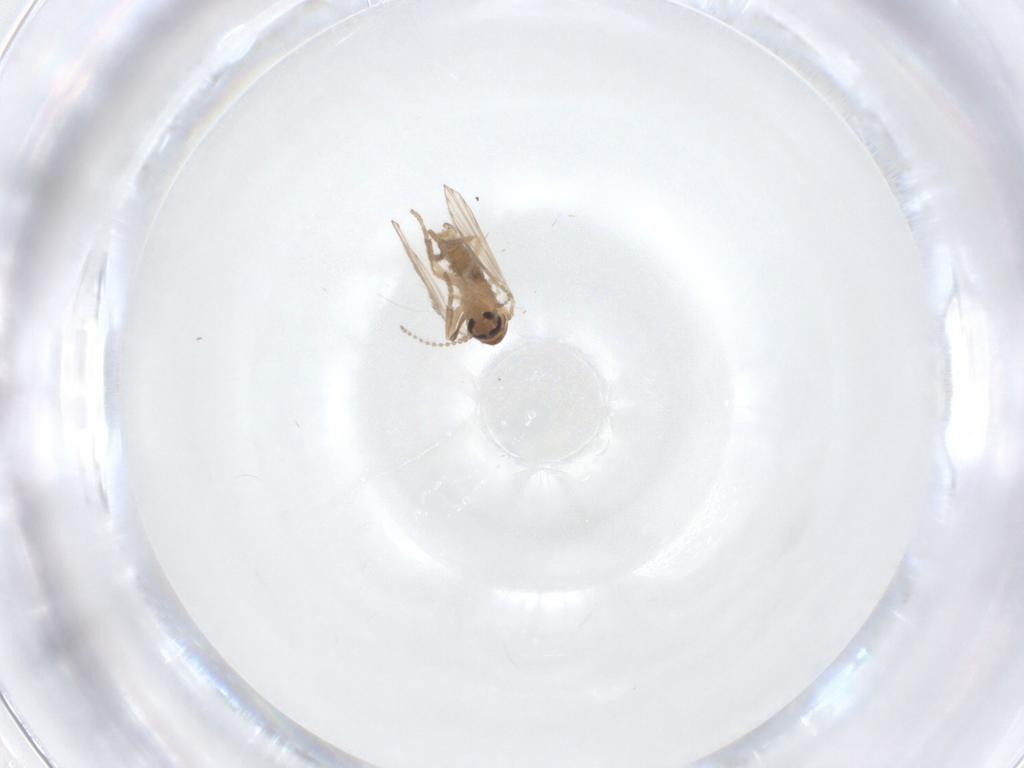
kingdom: Animalia
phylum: Arthropoda
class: Insecta
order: Diptera
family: Psychodidae
